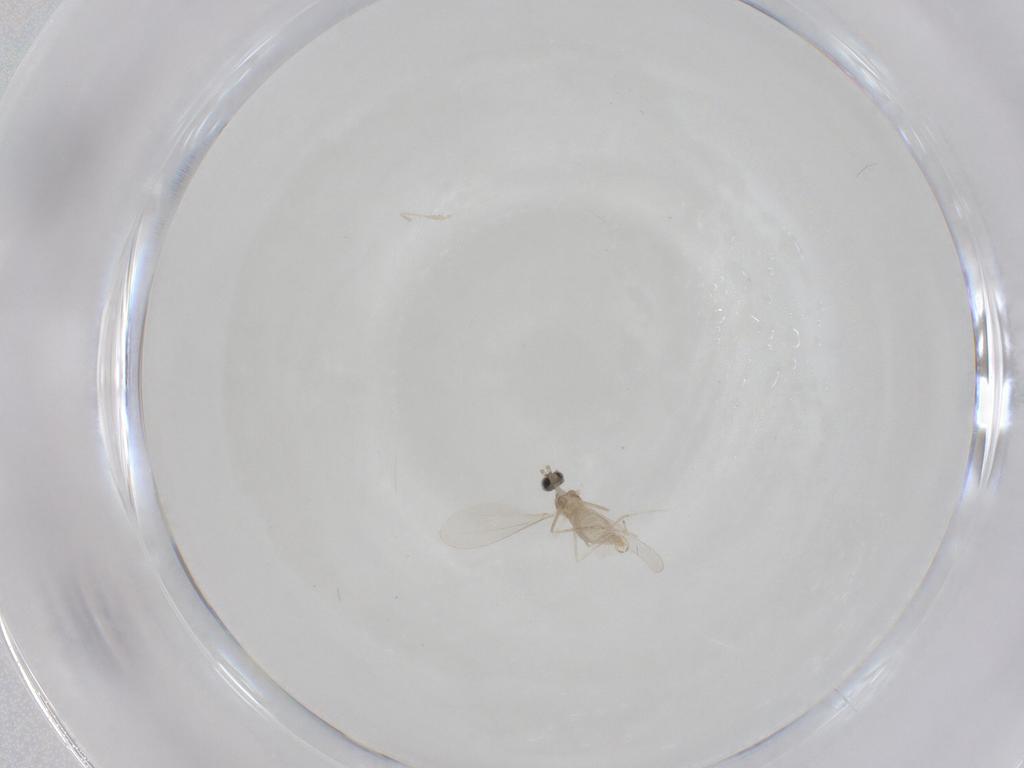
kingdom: Animalia
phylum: Arthropoda
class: Insecta
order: Diptera
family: Cecidomyiidae
